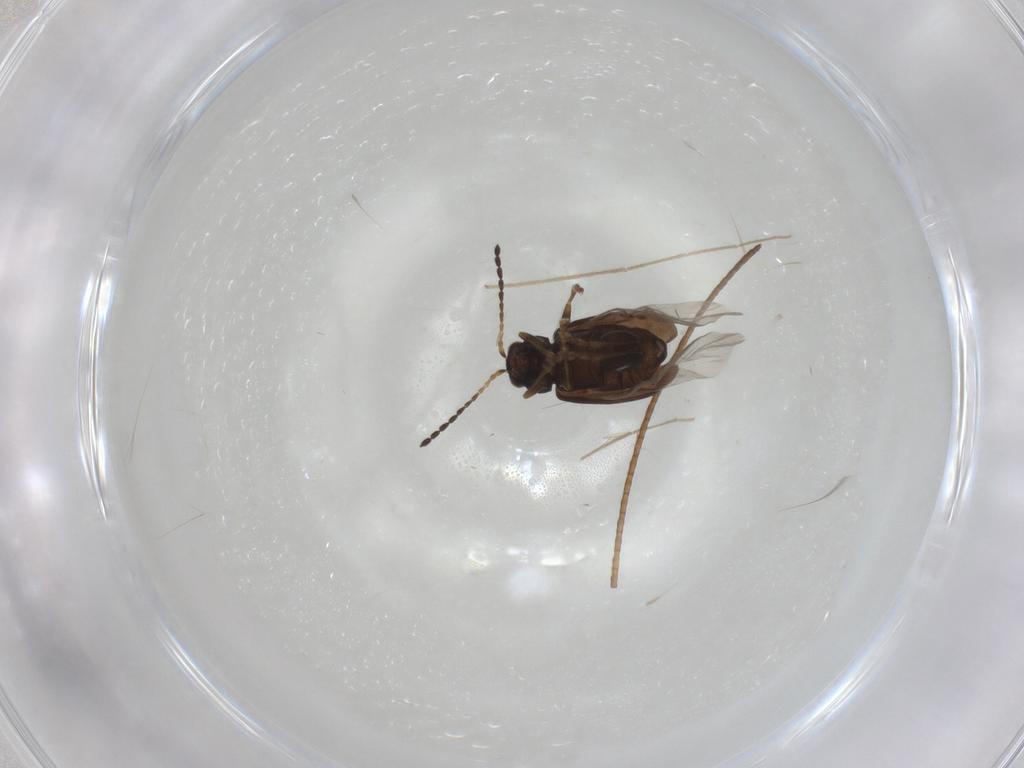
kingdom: Animalia
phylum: Arthropoda
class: Insecta
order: Coleoptera
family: Chrysomelidae
